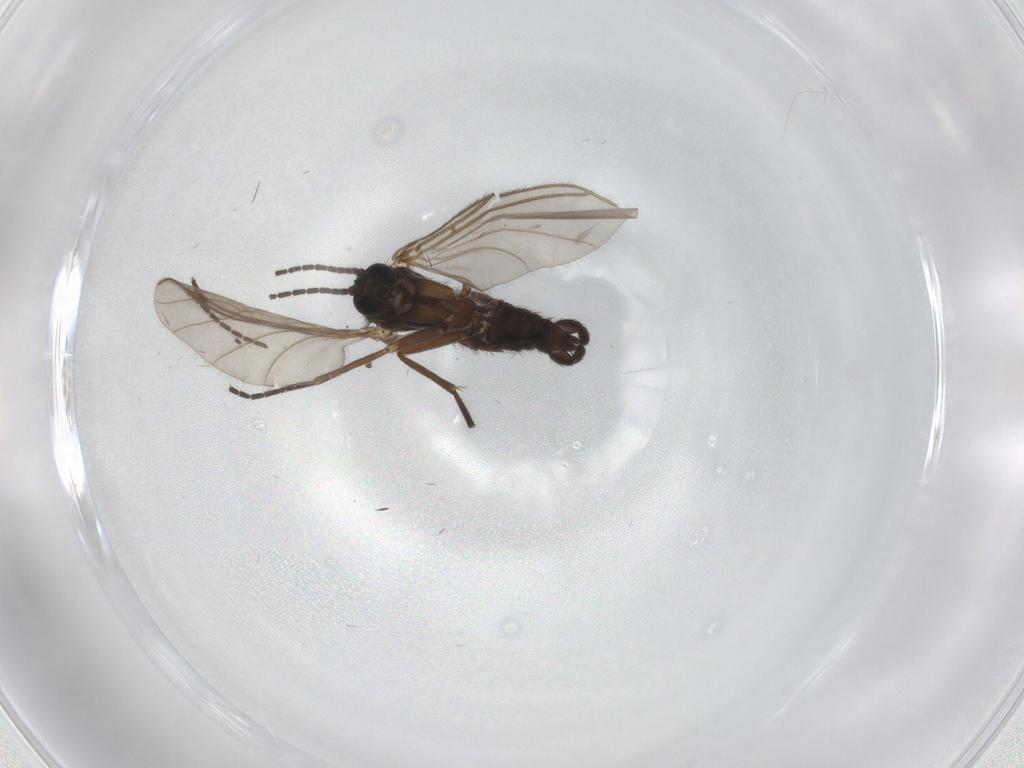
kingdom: Animalia
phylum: Arthropoda
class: Insecta
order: Diptera
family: Sciaridae
